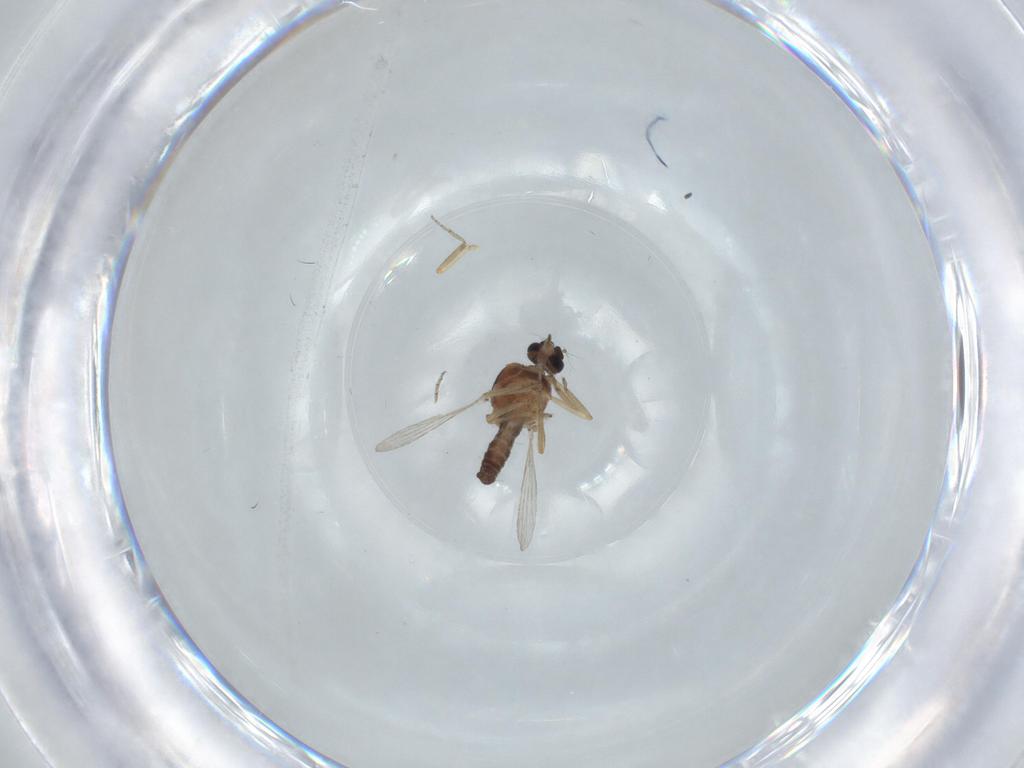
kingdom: Animalia
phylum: Arthropoda
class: Insecta
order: Diptera
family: Ceratopogonidae
